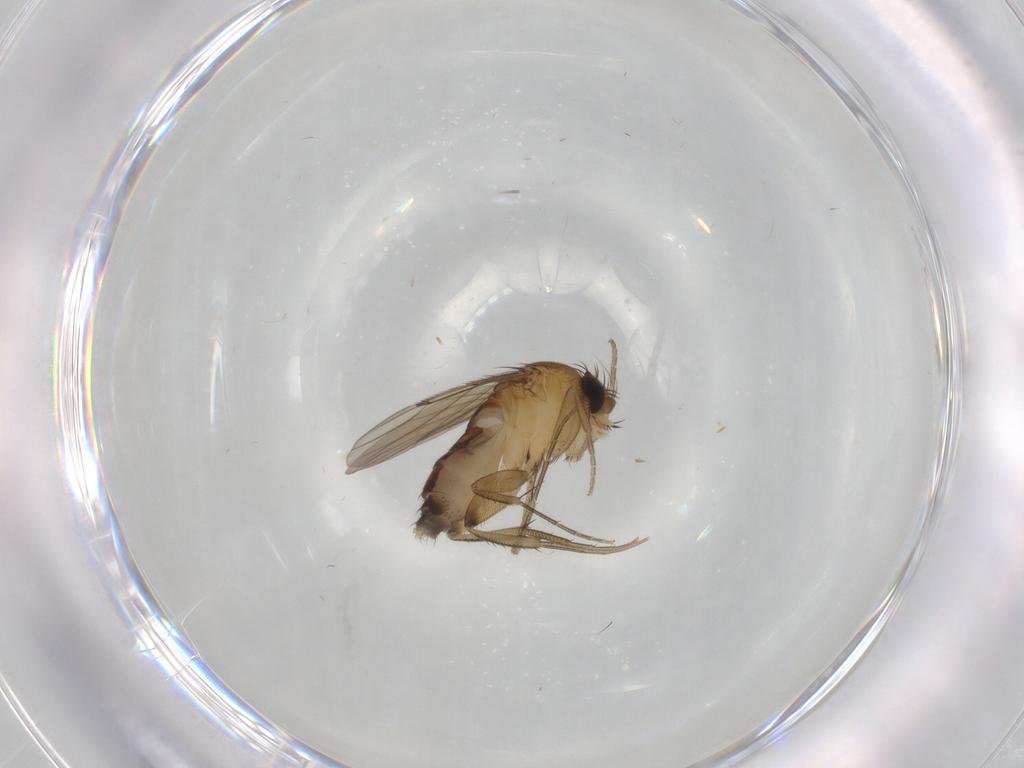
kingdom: Animalia
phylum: Arthropoda
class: Insecta
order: Diptera
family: Phoridae
